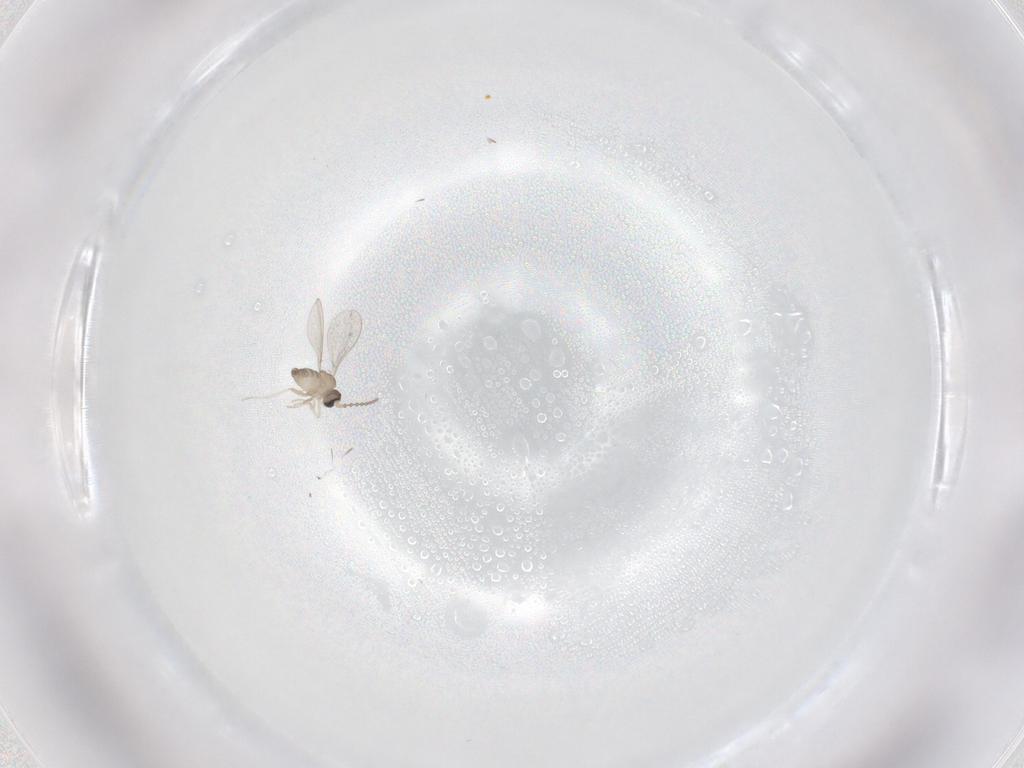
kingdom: Animalia
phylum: Arthropoda
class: Insecta
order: Diptera
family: Cecidomyiidae
